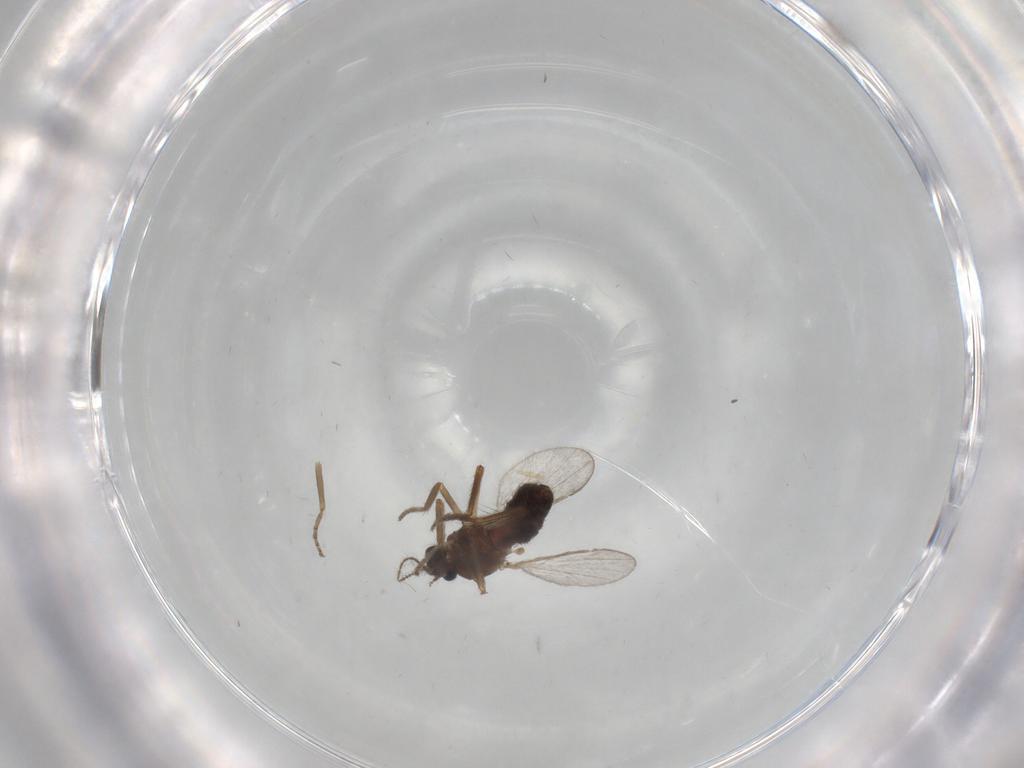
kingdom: Animalia
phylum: Arthropoda
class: Insecta
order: Diptera
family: Ceratopogonidae
